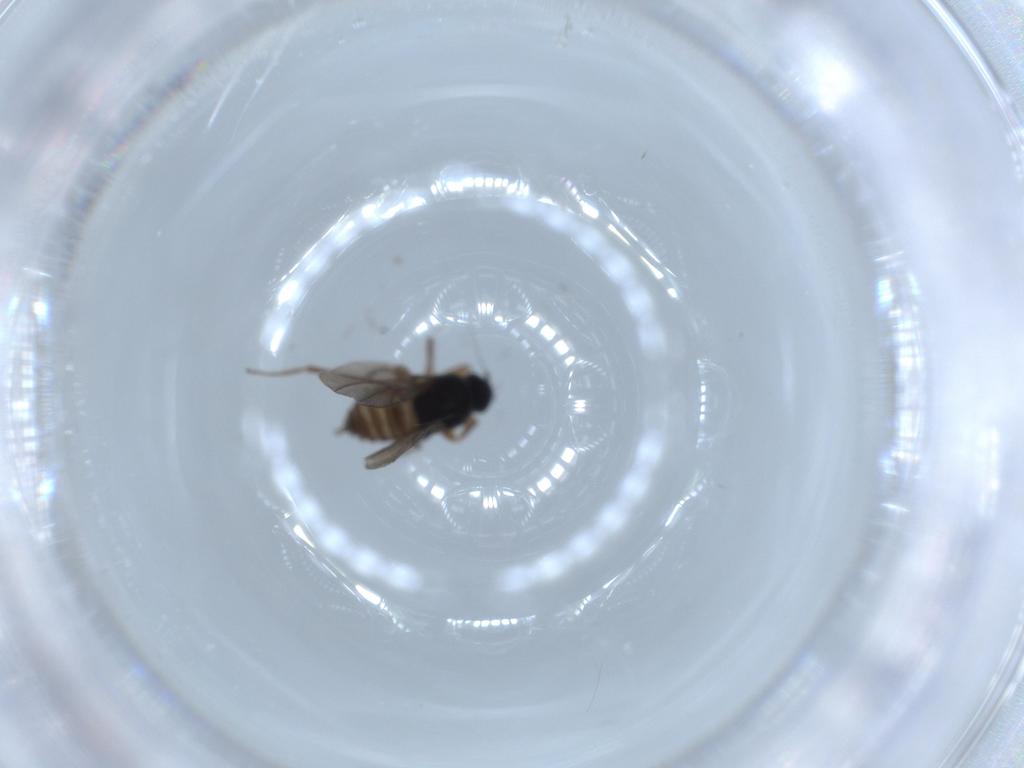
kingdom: Animalia
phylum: Arthropoda
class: Insecta
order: Diptera
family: Hybotidae
